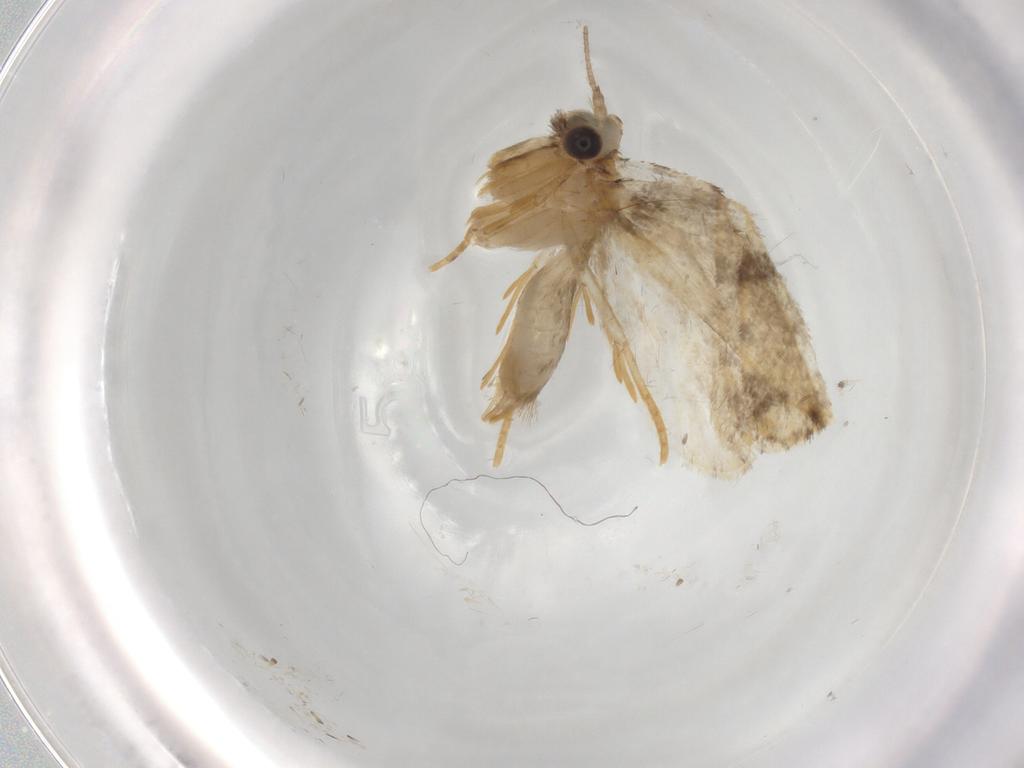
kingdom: Animalia
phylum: Arthropoda
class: Insecta
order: Lepidoptera
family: Psychidae
